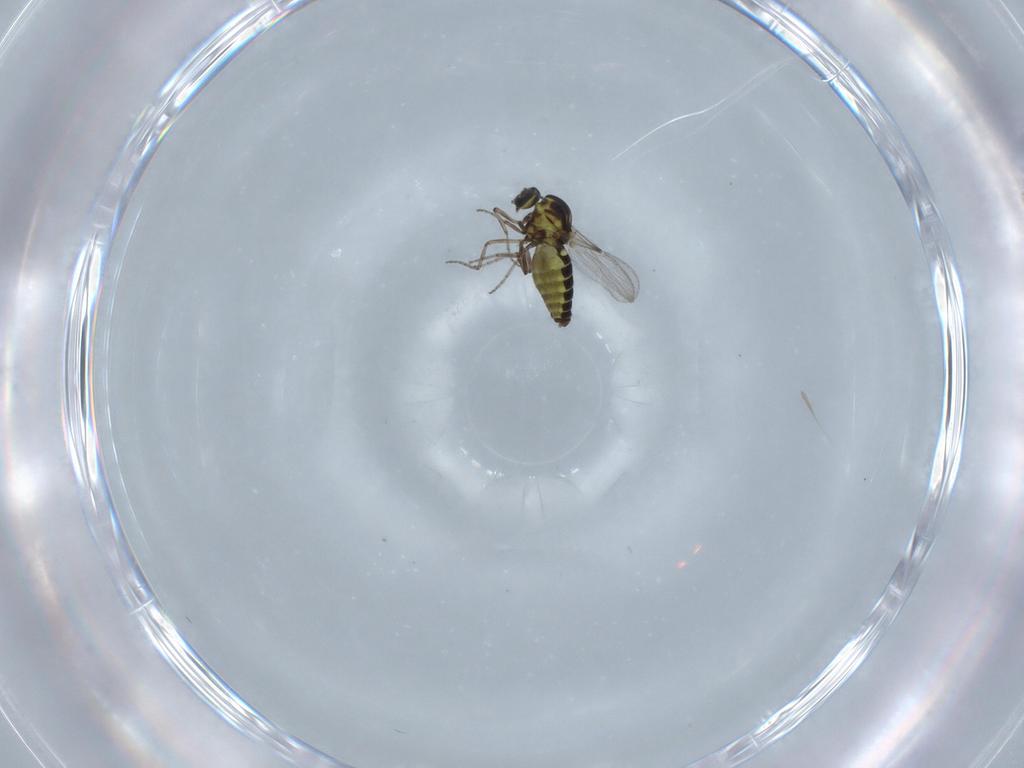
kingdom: Animalia
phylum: Arthropoda
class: Insecta
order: Diptera
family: Ceratopogonidae
